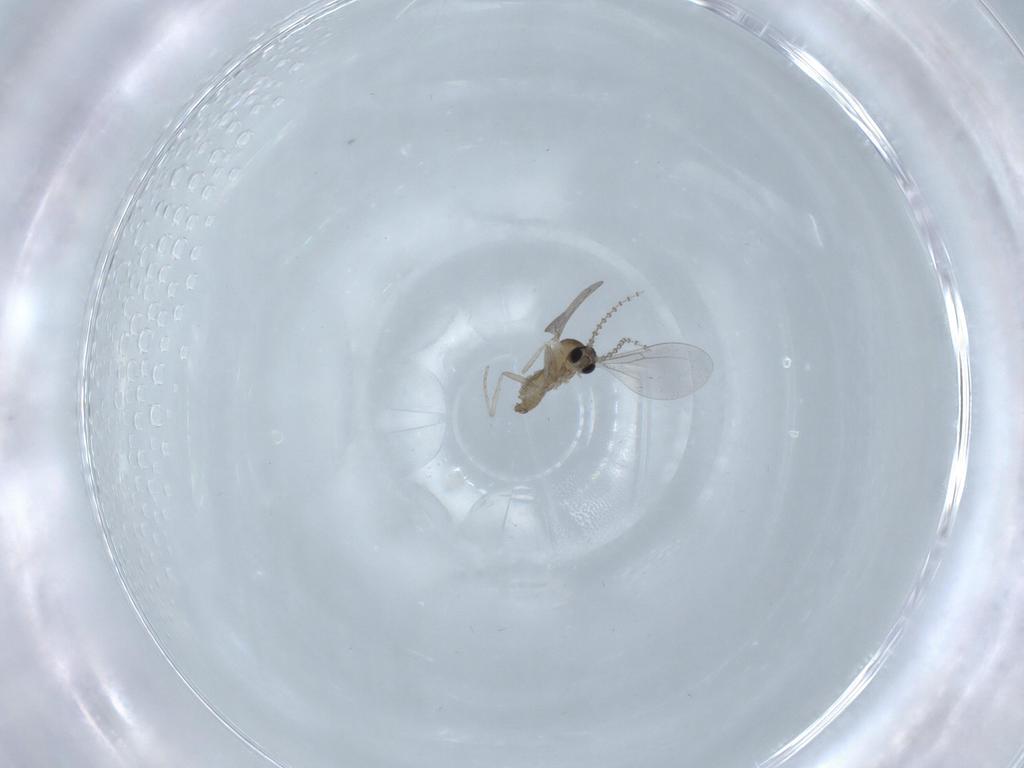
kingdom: Animalia
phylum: Arthropoda
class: Insecta
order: Diptera
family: Cecidomyiidae
